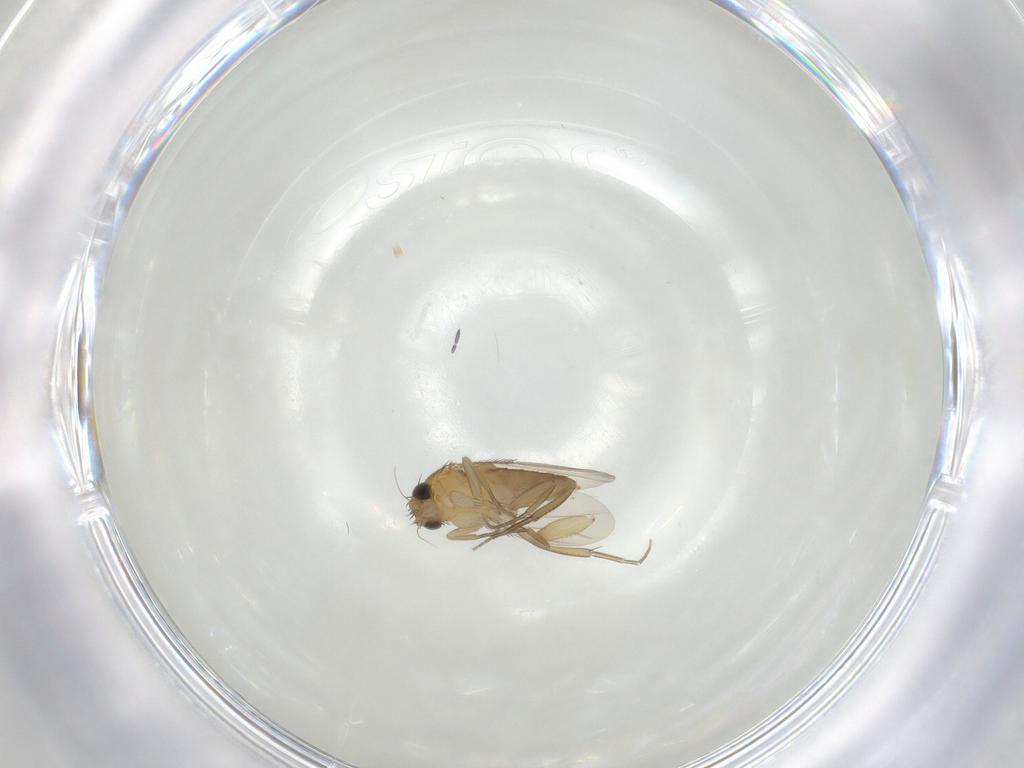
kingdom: Animalia
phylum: Arthropoda
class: Insecta
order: Diptera
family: Phoridae
